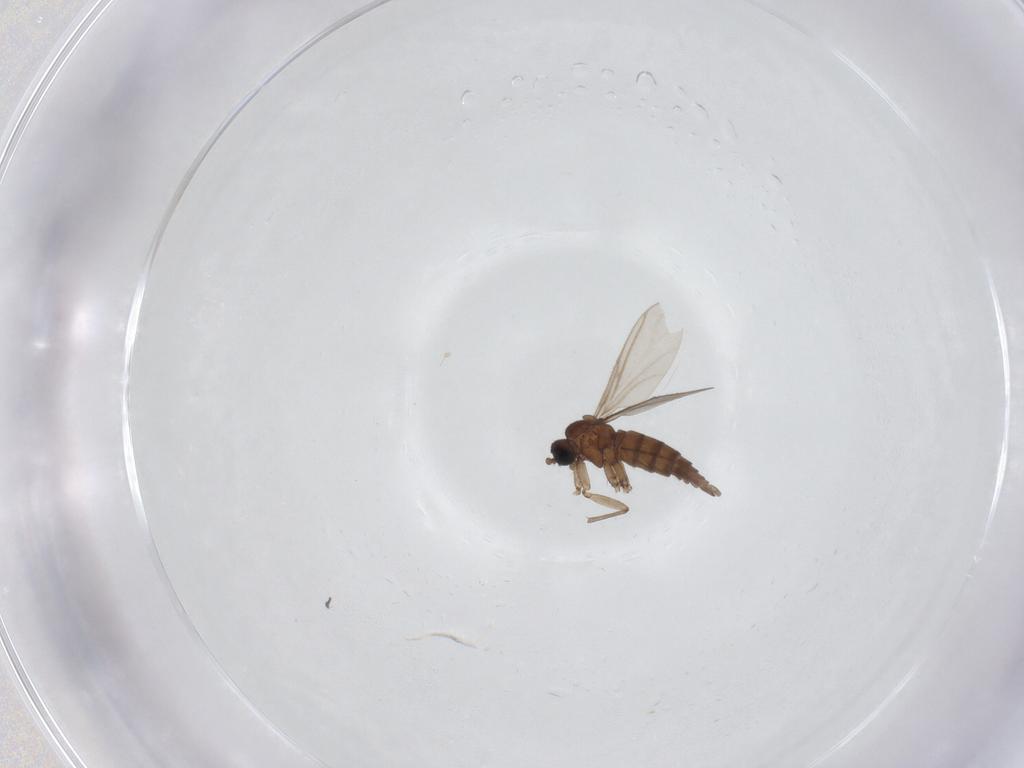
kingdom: Animalia
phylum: Arthropoda
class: Insecta
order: Diptera
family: Sciaridae
